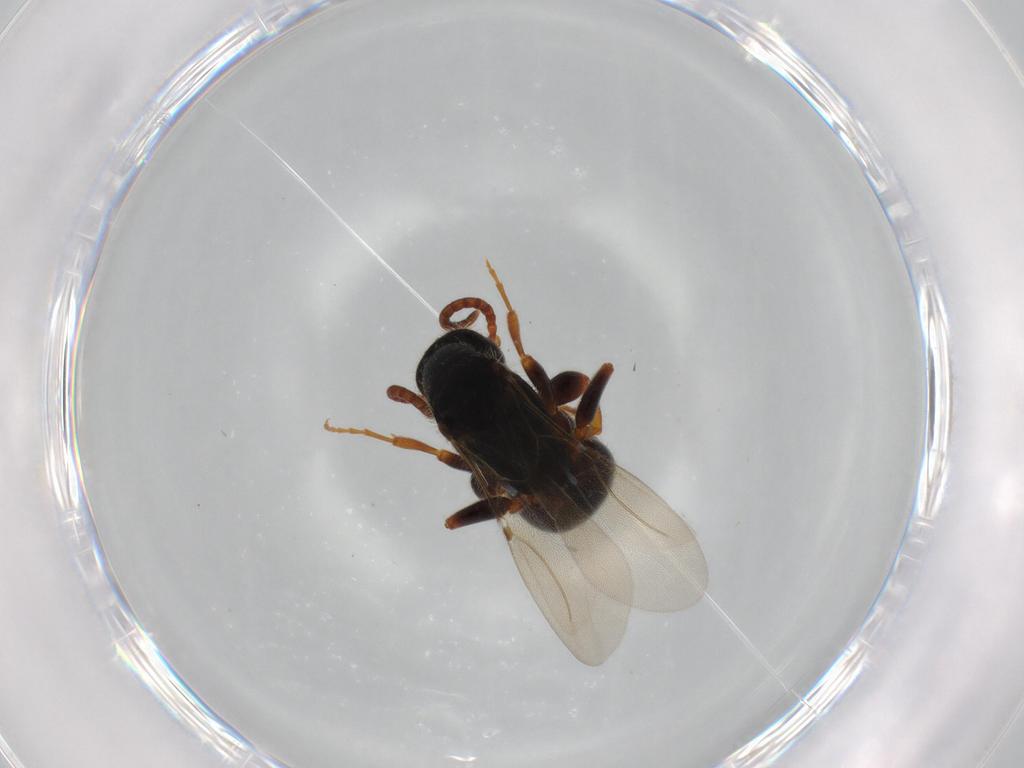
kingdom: Animalia
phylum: Arthropoda
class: Insecta
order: Hymenoptera
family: Bethylidae
